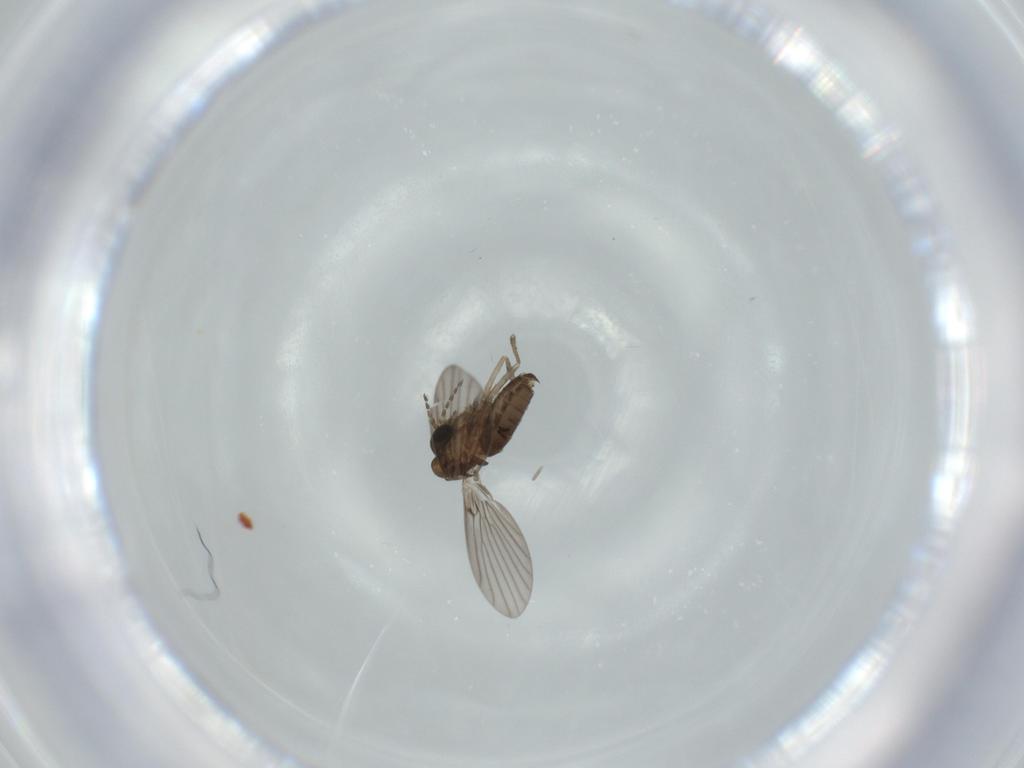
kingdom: Animalia
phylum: Arthropoda
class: Insecta
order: Diptera
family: Psychodidae
